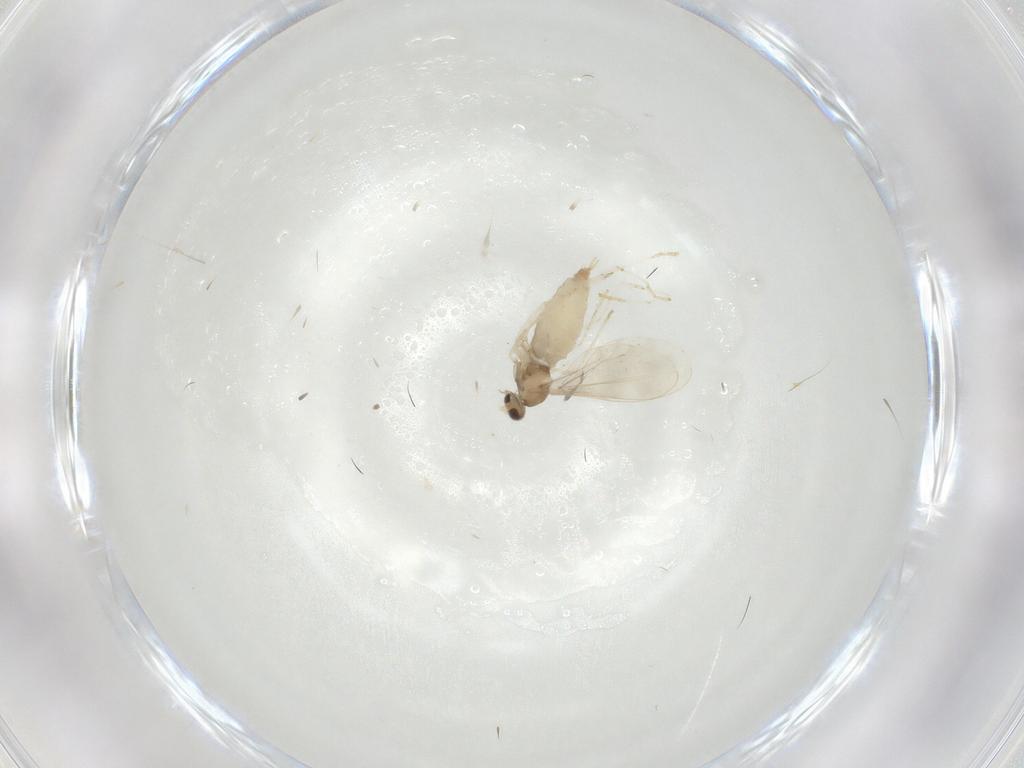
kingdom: Animalia
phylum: Arthropoda
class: Insecta
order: Diptera
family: Cecidomyiidae
